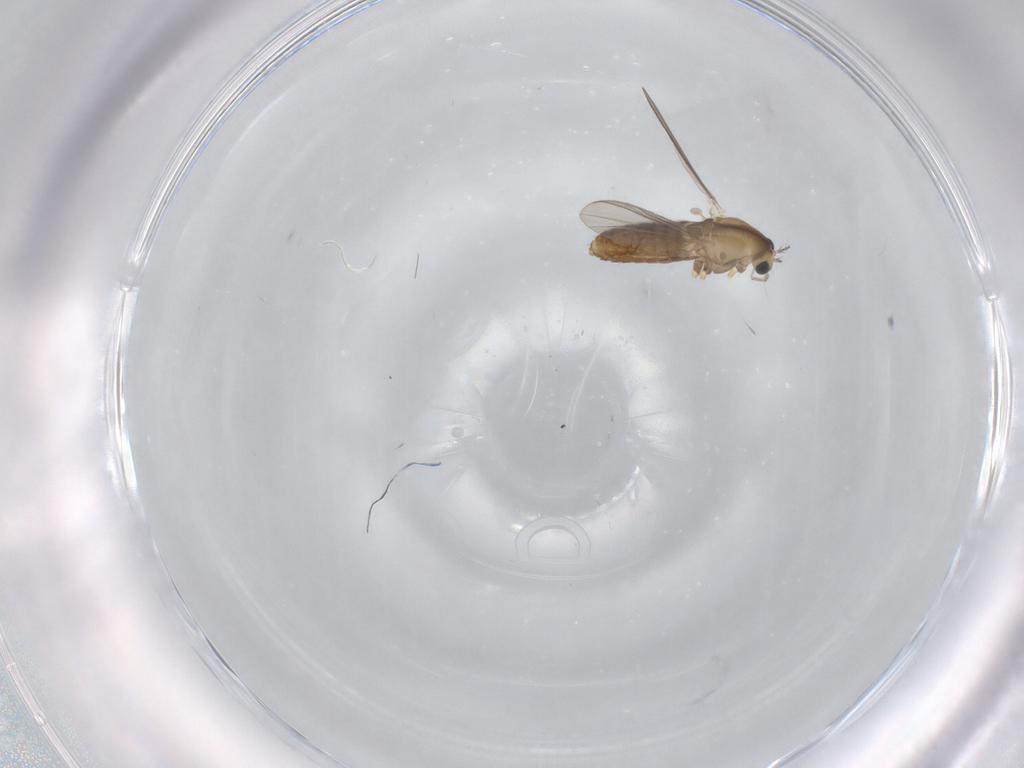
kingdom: Animalia
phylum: Arthropoda
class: Insecta
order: Diptera
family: Chironomidae
